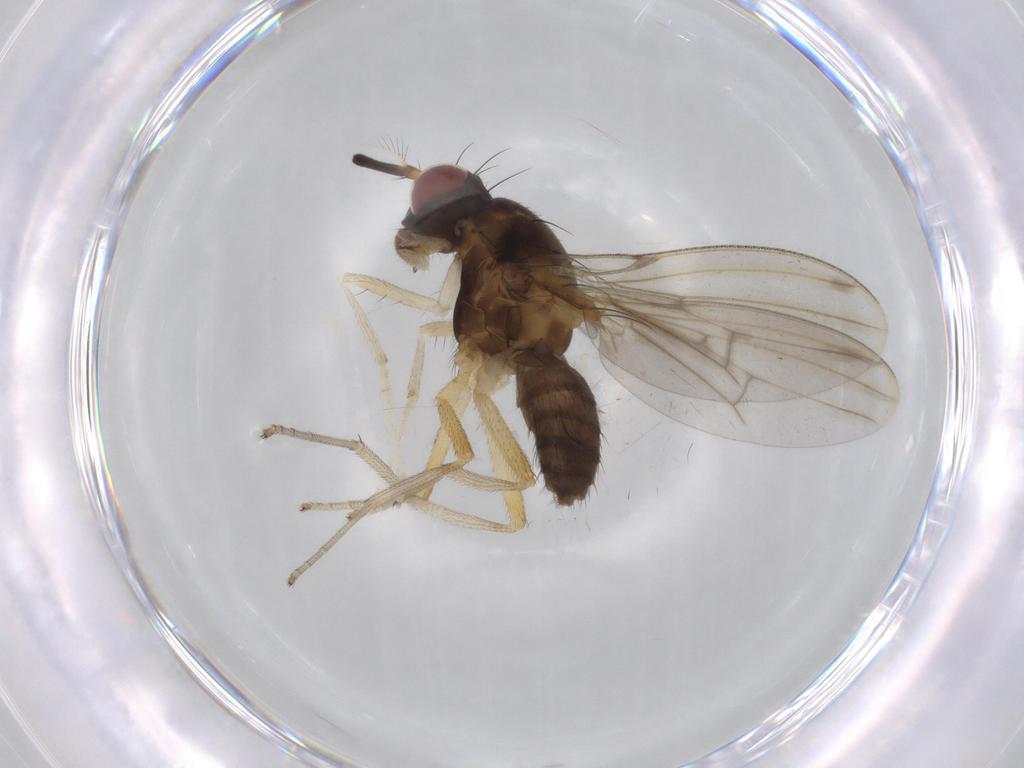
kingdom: Animalia
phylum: Arthropoda
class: Insecta
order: Diptera
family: Lauxaniidae
